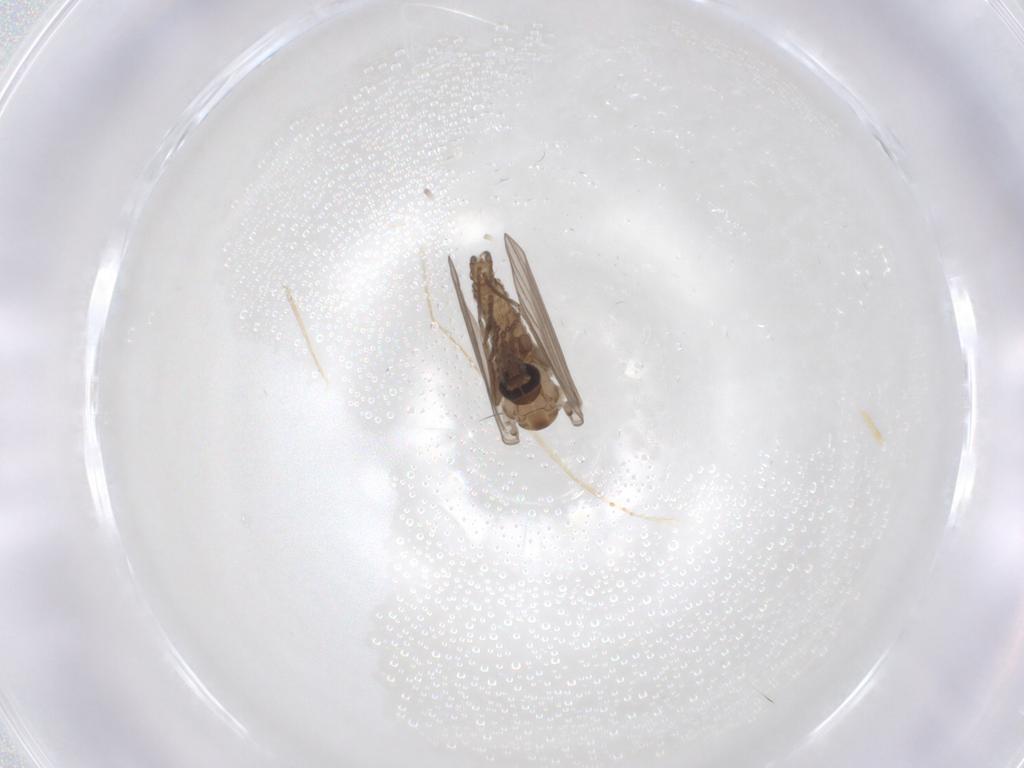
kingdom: Animalia
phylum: Arthropoda
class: Insecta
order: Diptera
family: Psychodidae
